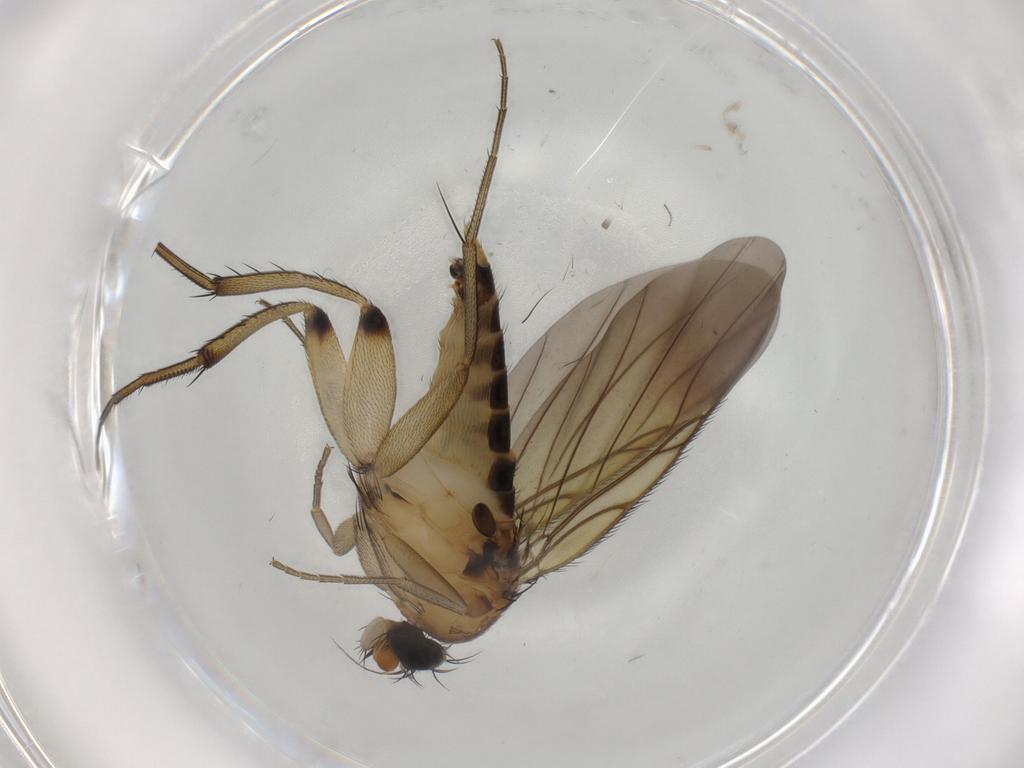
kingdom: Animalia
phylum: Arthropoda
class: Insecta
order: Diptera
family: Phoridae
